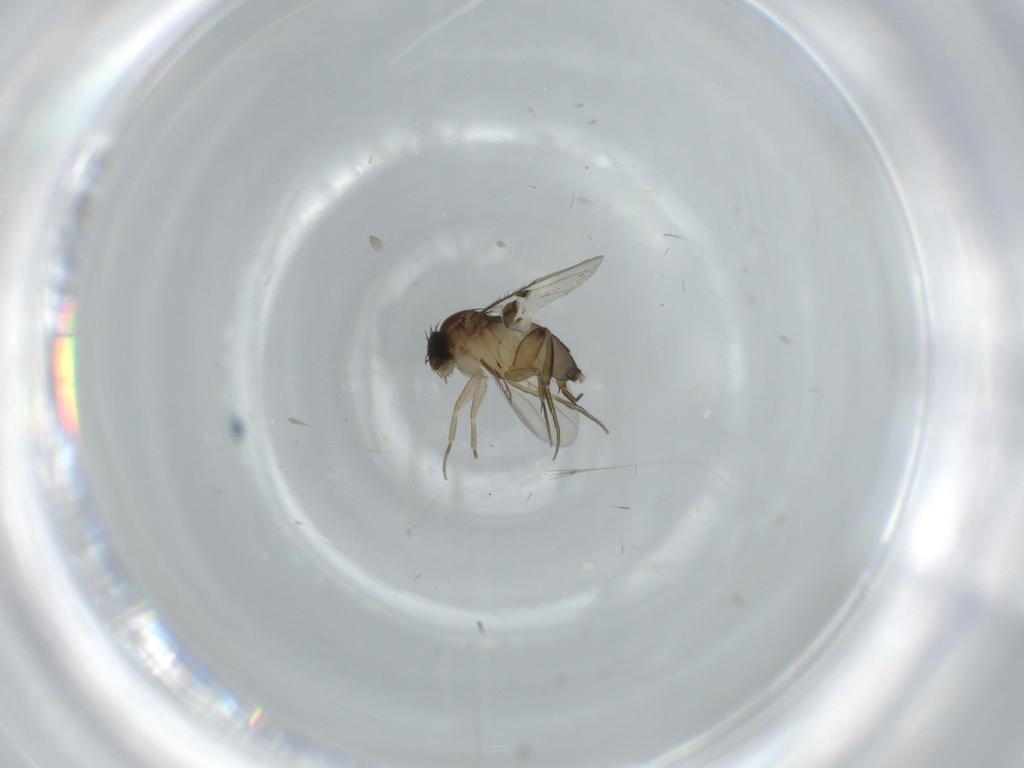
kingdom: Animalia
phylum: Arthropoda
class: Insecta
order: Diptera
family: Phoridae
